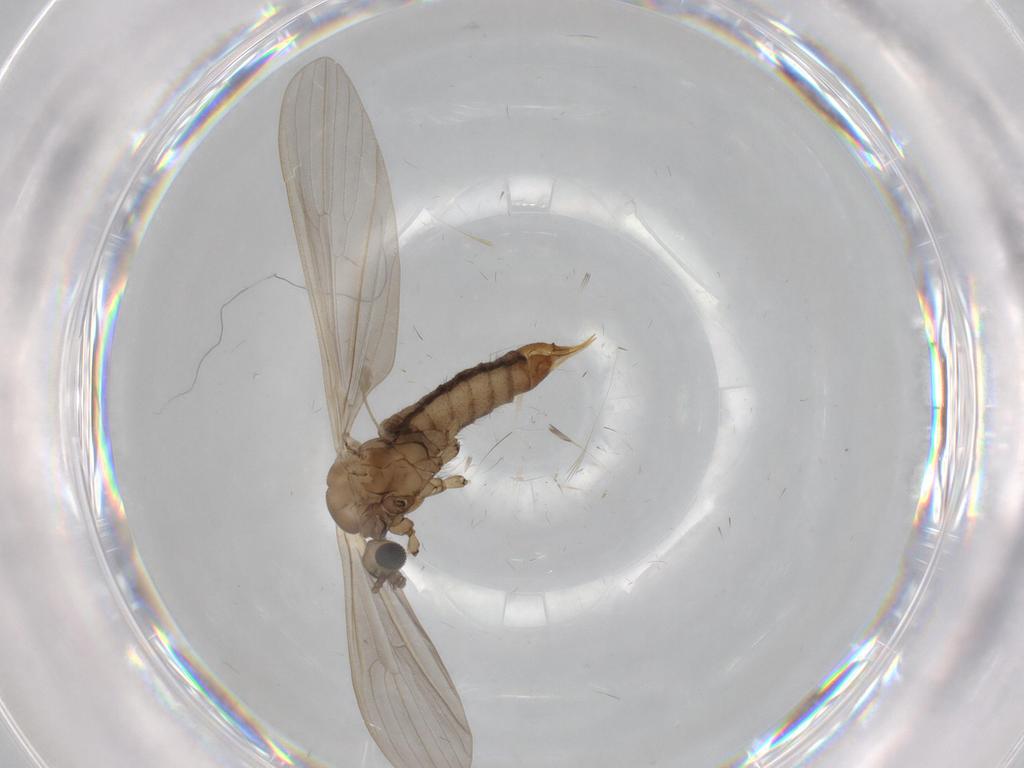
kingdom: Animalia
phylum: Arthropoda
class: Insecta
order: Diptera
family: Limoniidae
